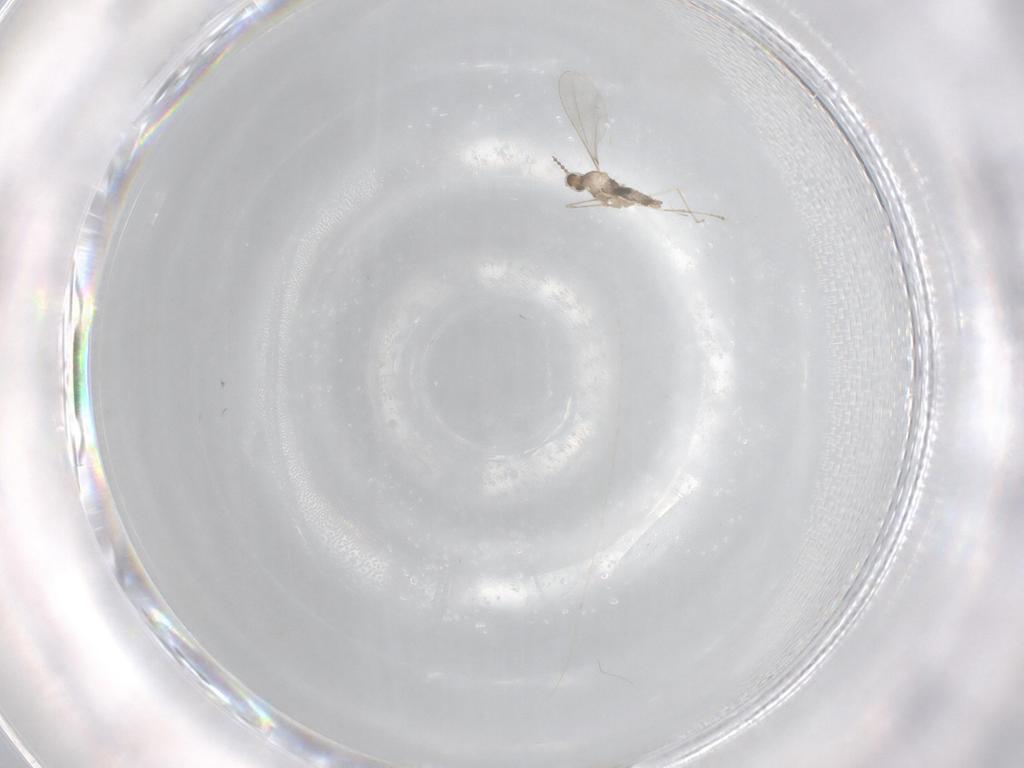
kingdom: Animalia
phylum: Arthropoda
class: Insecta
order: Diptera
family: Cecidomyiidae
